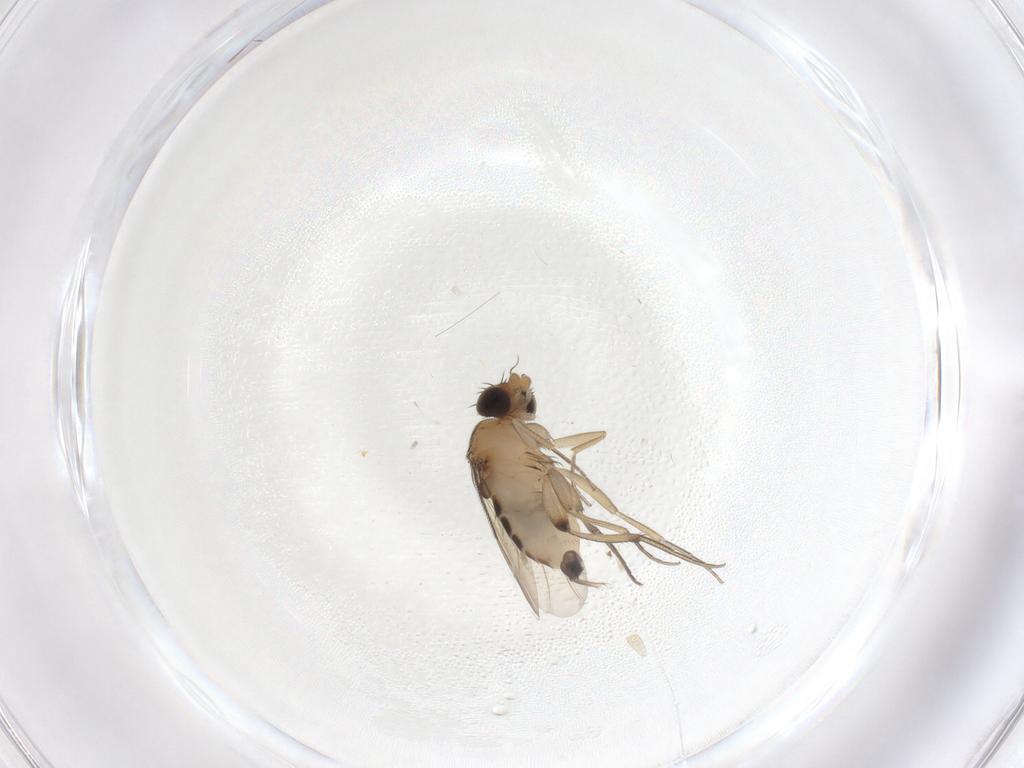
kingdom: Animalia
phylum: Arthropoda
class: Insecta
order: Diptera
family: Phoridae
